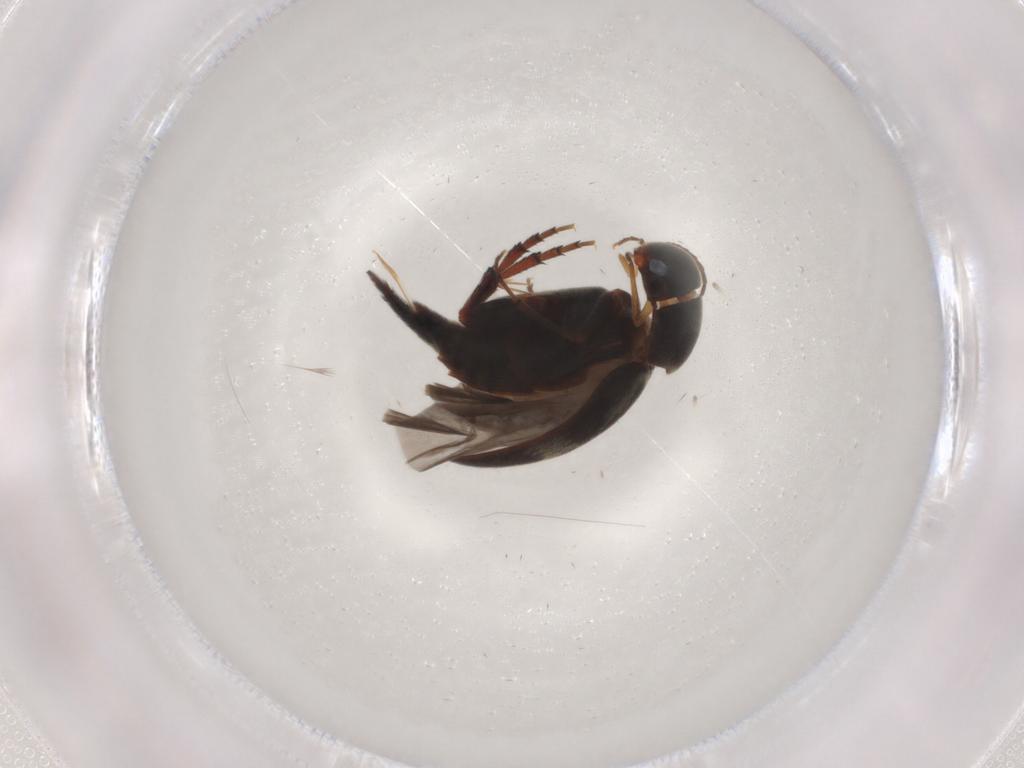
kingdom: Animalia
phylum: Arthropoda
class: Insecta
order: Coleoptera
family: Mordellidae
